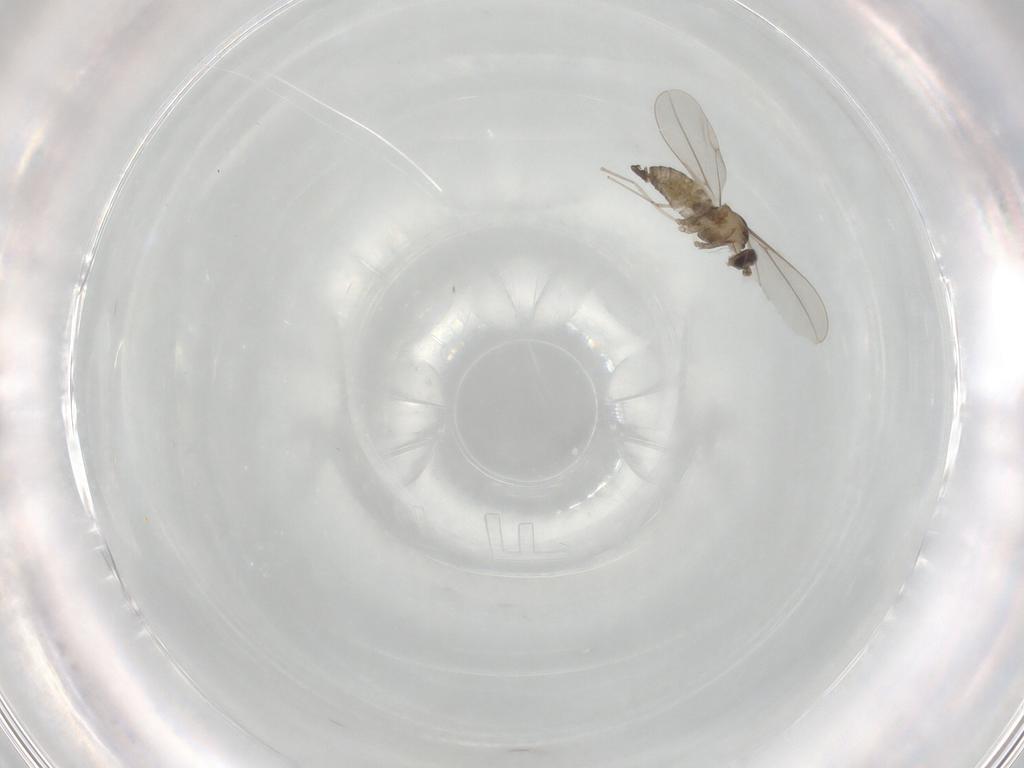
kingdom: Animalia
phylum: Arthropoda
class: Insecta
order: Diptera
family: Cecidomyiidae
